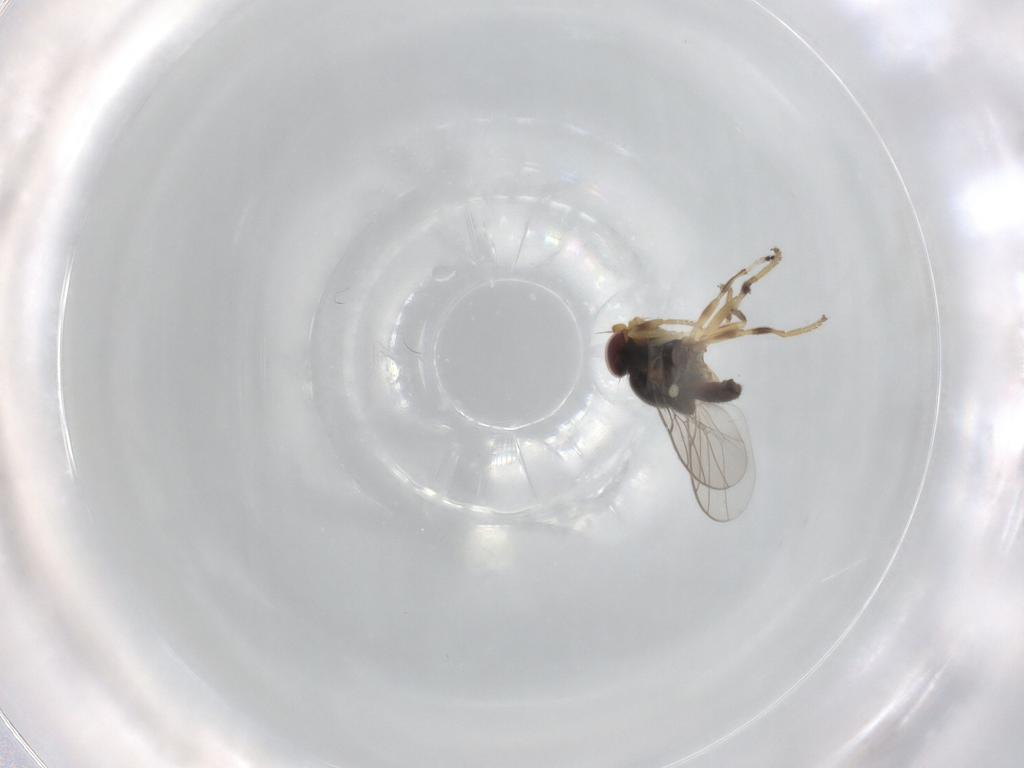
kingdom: Animalia
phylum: Arthropoda
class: Insecta
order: Diptera
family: Chloropidae
